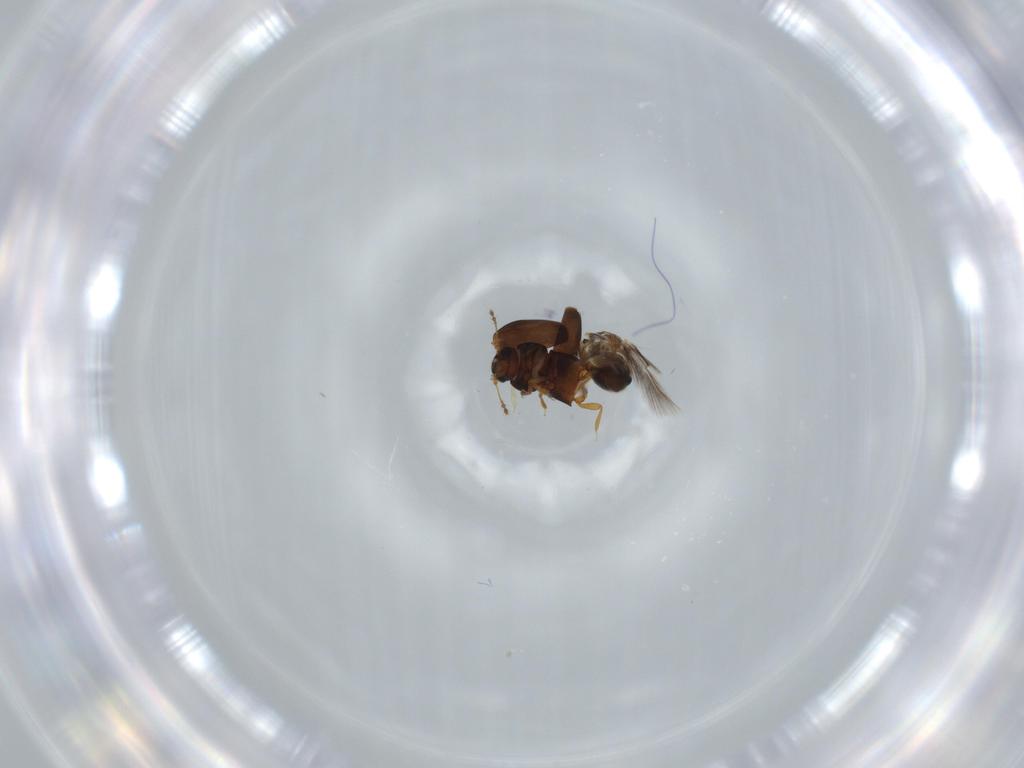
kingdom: Animalia
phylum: Arthropoda
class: Insecta
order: Coleoptera
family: Ptiliidae
